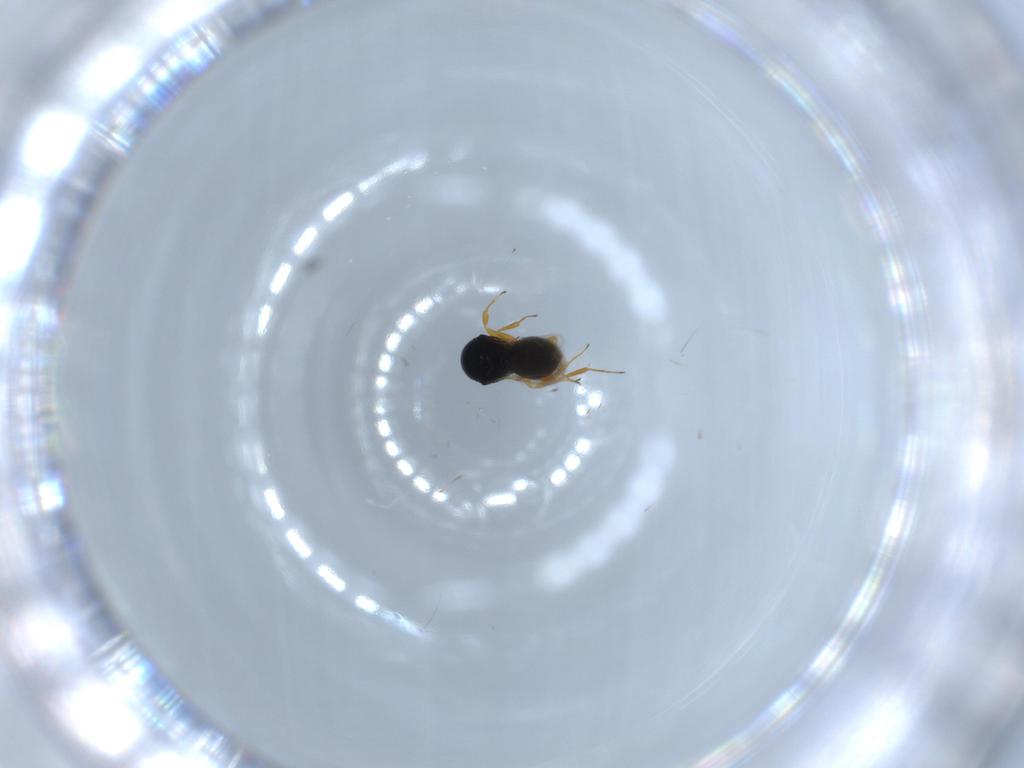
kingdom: Animalia
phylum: Arthropoda
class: Insecta
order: Hymenoptera
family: Scelionidae
